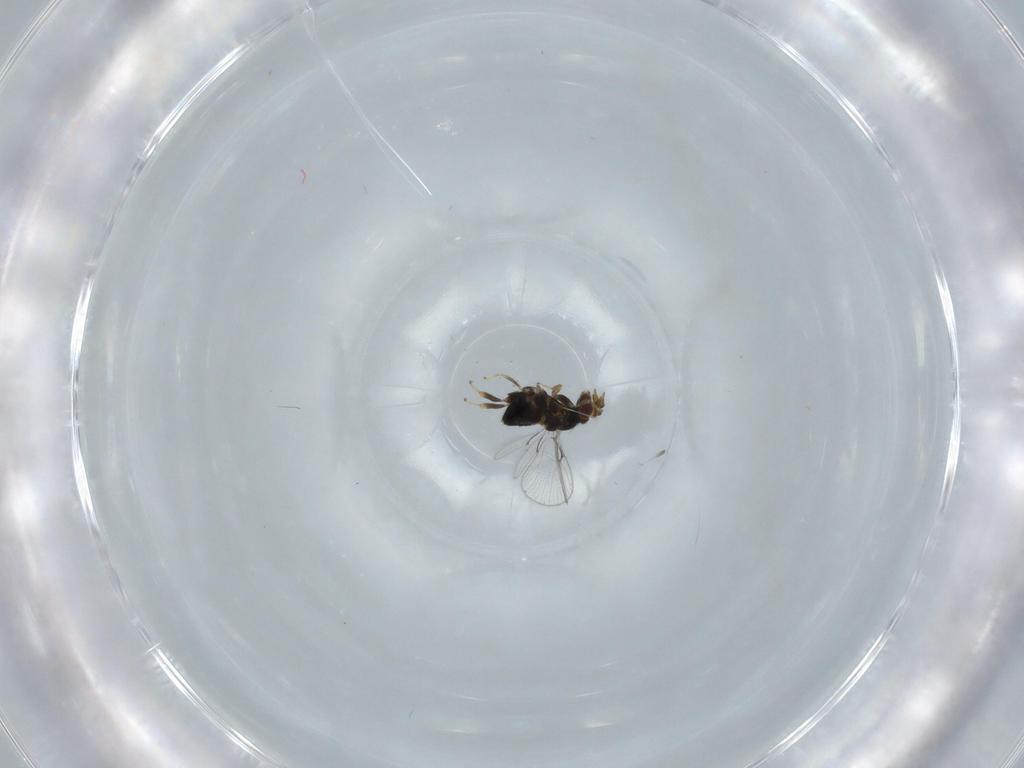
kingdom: Animalia
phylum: Arthropoda
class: Insecta
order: Hymenoptera
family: Trichogrammatidae
